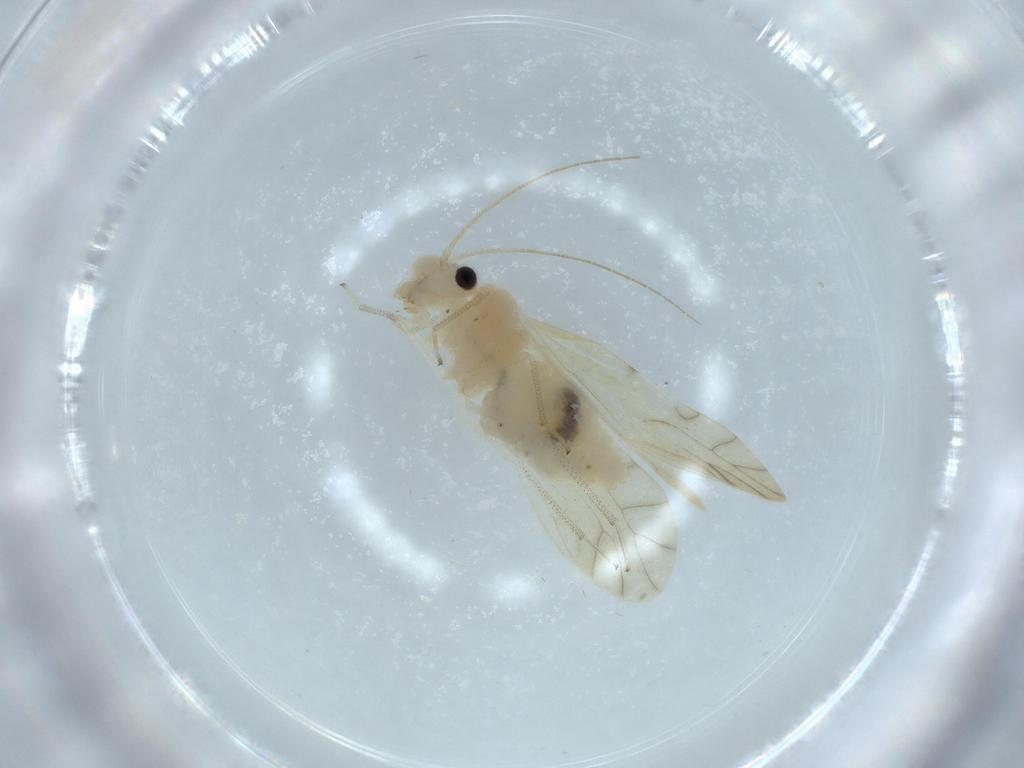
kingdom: Animalia
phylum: Arthropoda
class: Insecta
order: Psocodea
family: Caeciliusidae
